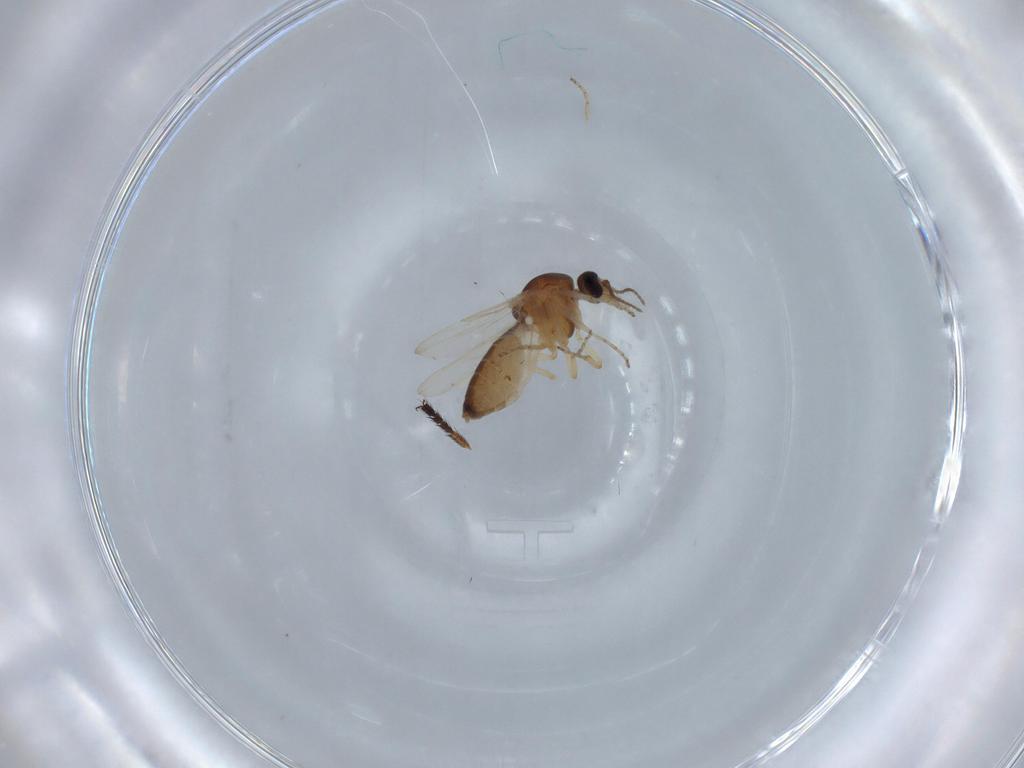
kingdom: Animalia
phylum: Arthropoda
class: Insecta
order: Diptera
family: Ceratopogonidae
